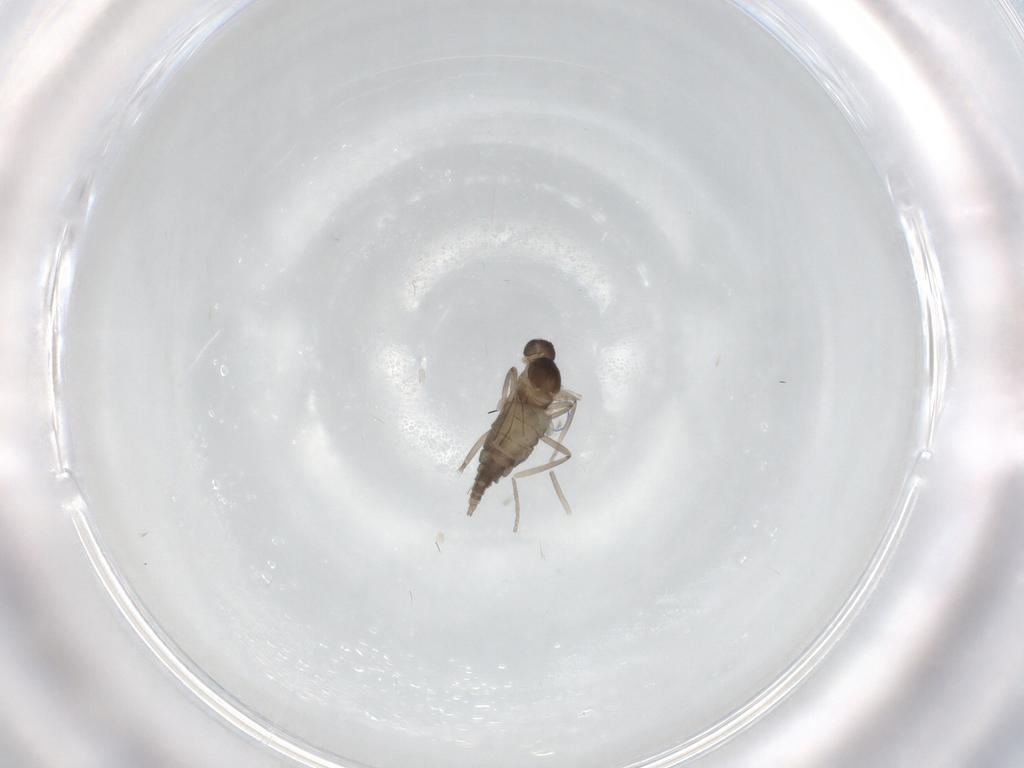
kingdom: Animalia
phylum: Arthropoda
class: Insecta
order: Diptera
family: Cecidomyiidae
